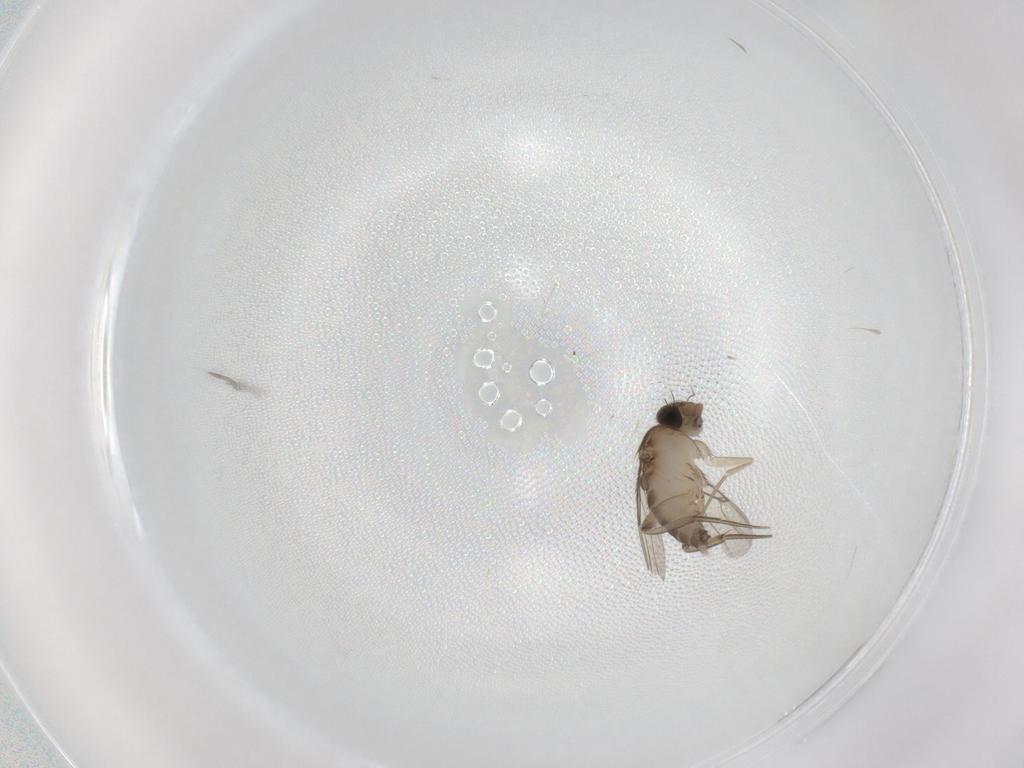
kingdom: Animalia
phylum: Arthropoda
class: Insecta
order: Diptera
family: Phoridae
